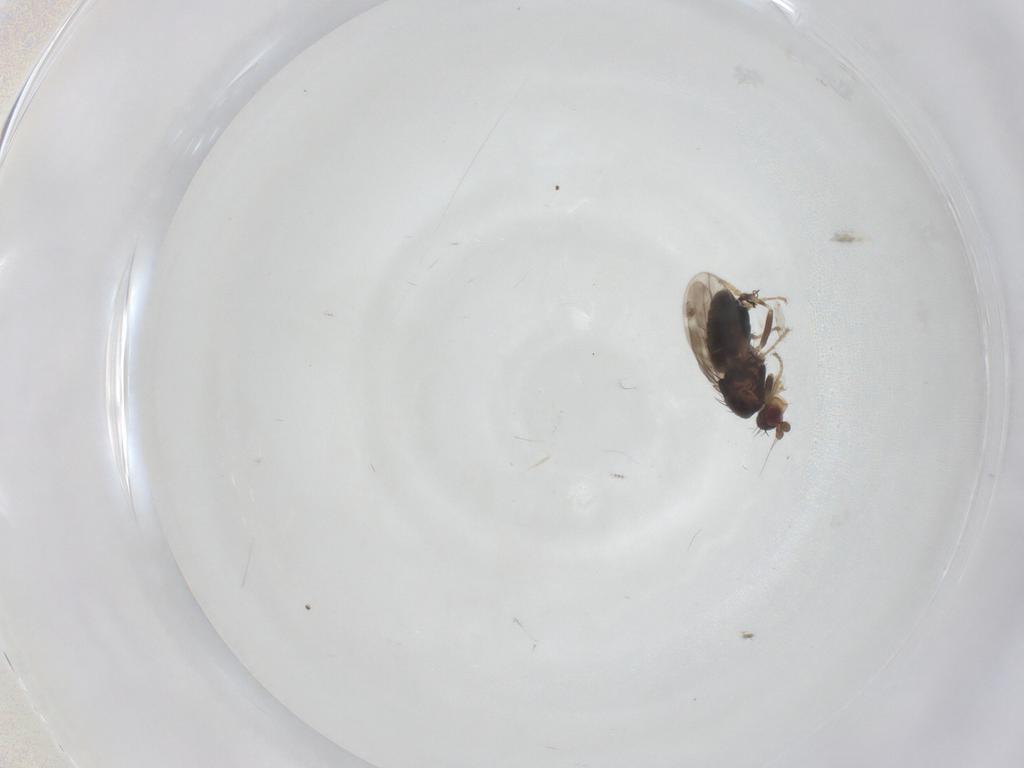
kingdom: Animalia
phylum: Arthropoda
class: Insecta
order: Diptera
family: Sphaeroceridae
